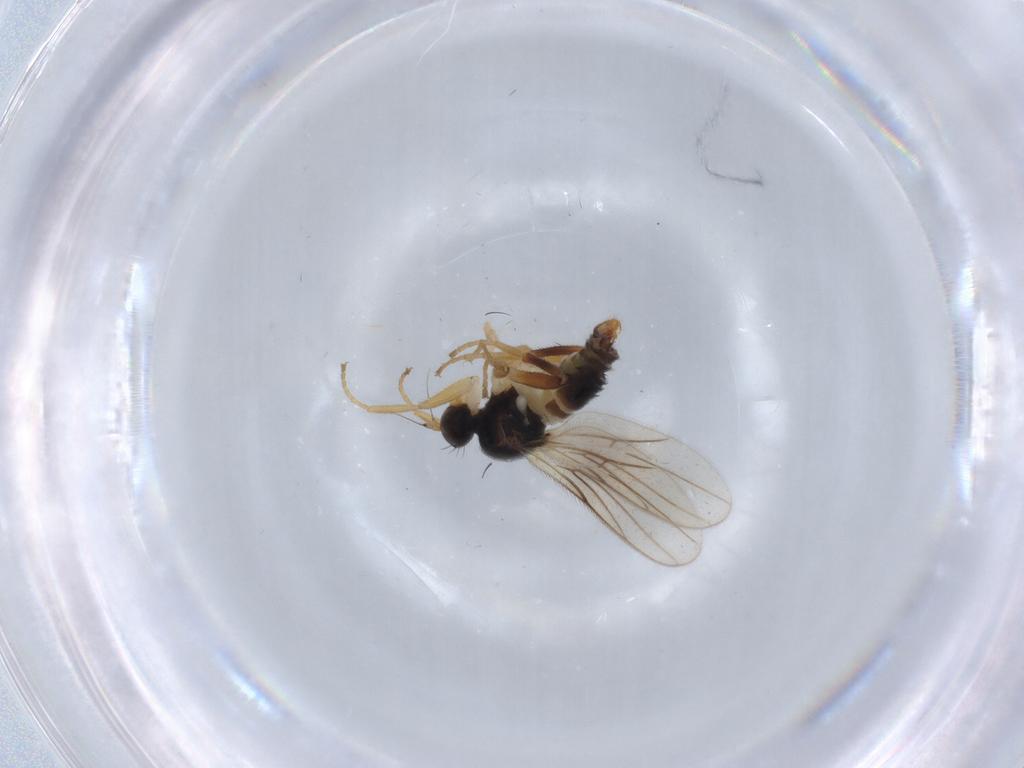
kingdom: Animalia
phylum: Arthropoda
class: Insecta
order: Diptera
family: Hybotidae
